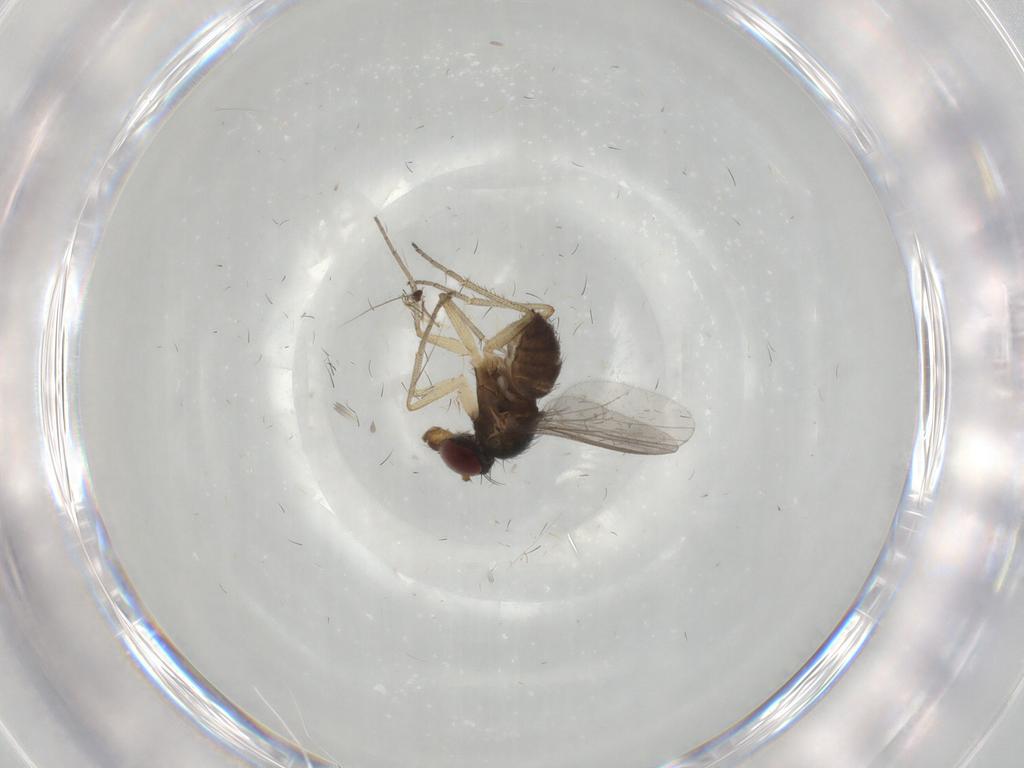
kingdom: Animalia
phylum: Arthropoda
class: Insecta
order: Diptera
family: Dolichopodidae
